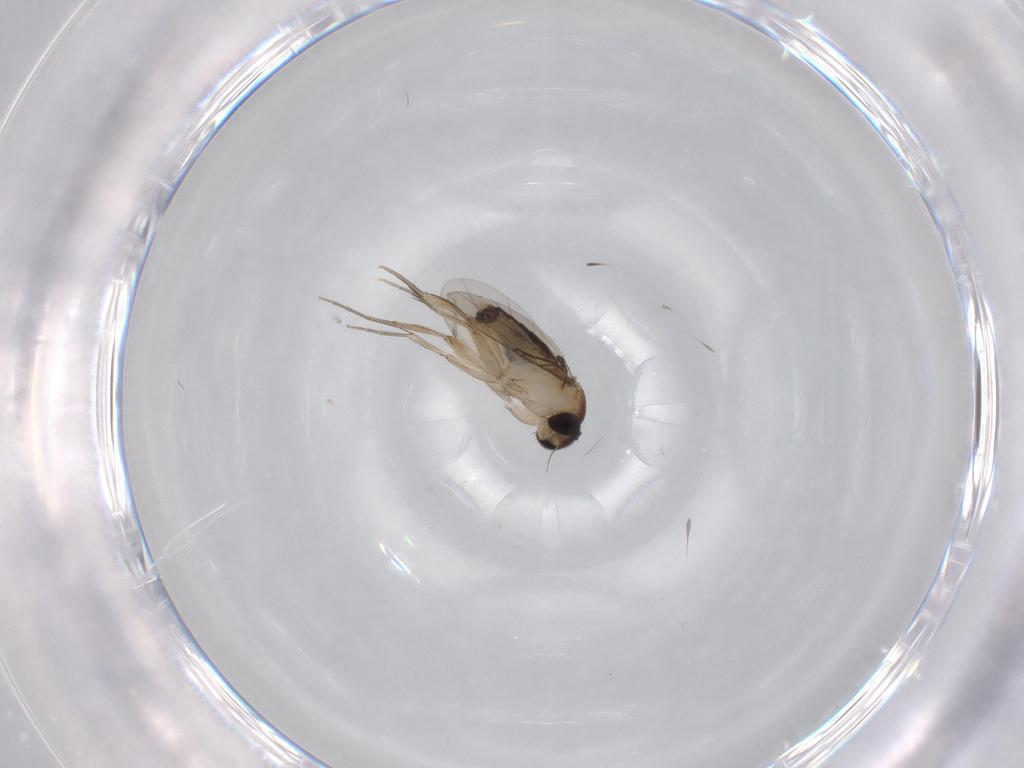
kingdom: Animalia
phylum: Arthropoda
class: Insecta
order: Diptera
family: Phoridae
